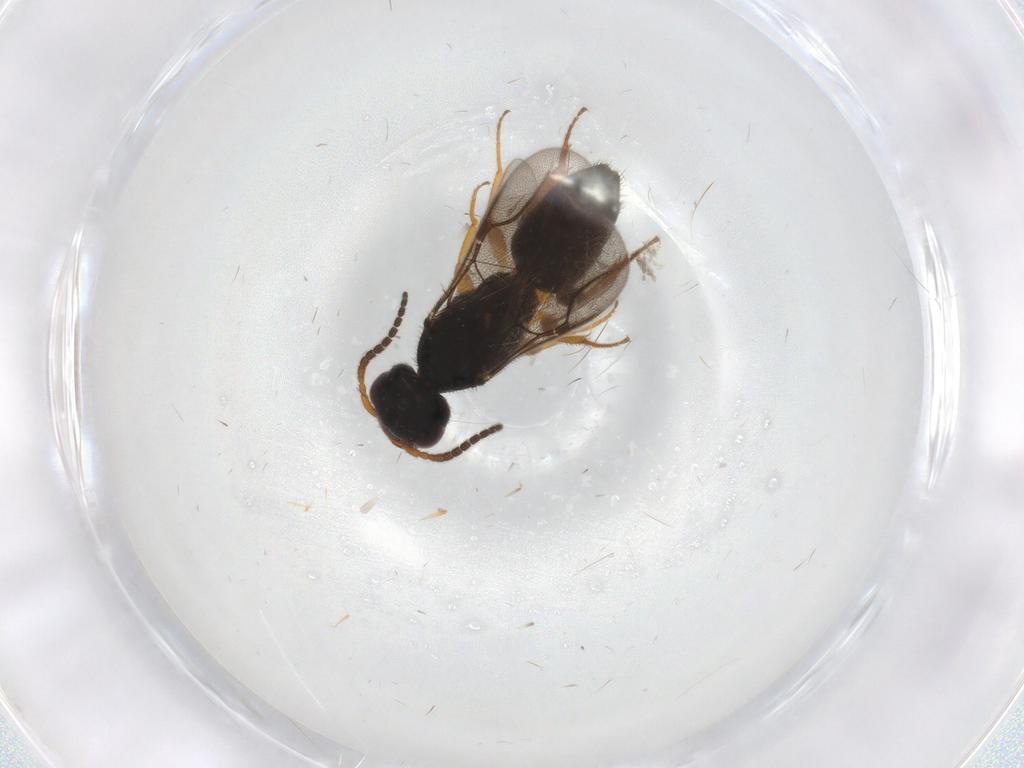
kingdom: Animalia
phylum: Arthropoda
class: Insecta
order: Hymenoptera
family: Bethylidae
